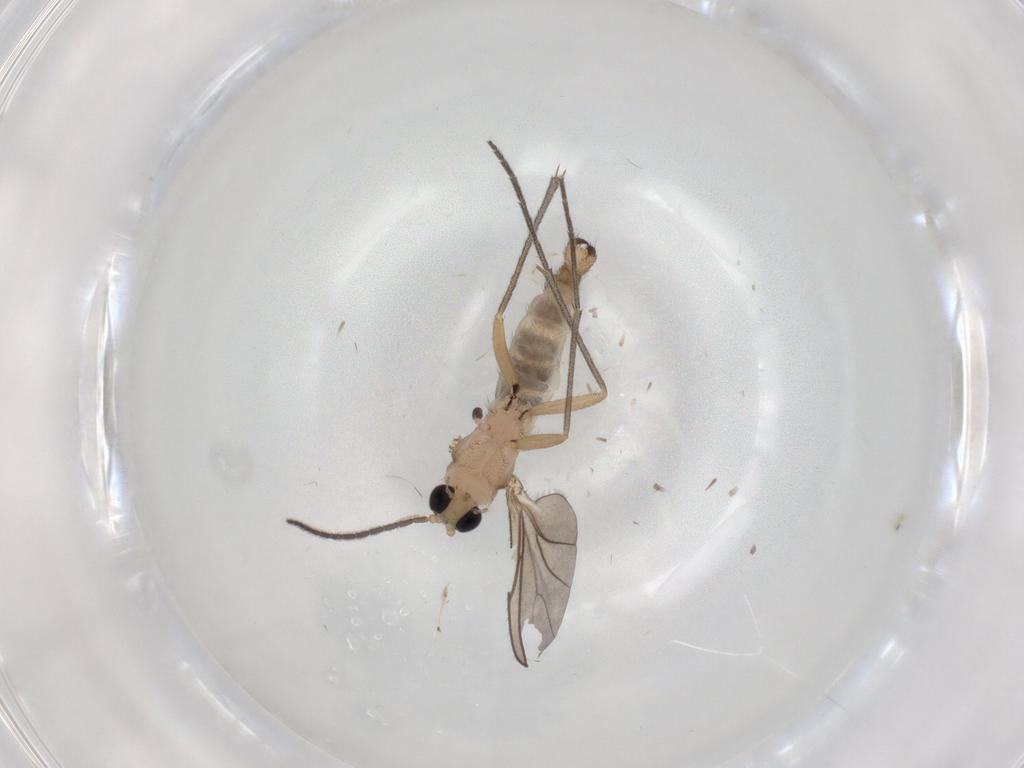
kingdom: Animalia
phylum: Arthropoda
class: Insecta
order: Diptera
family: Sciaridae
